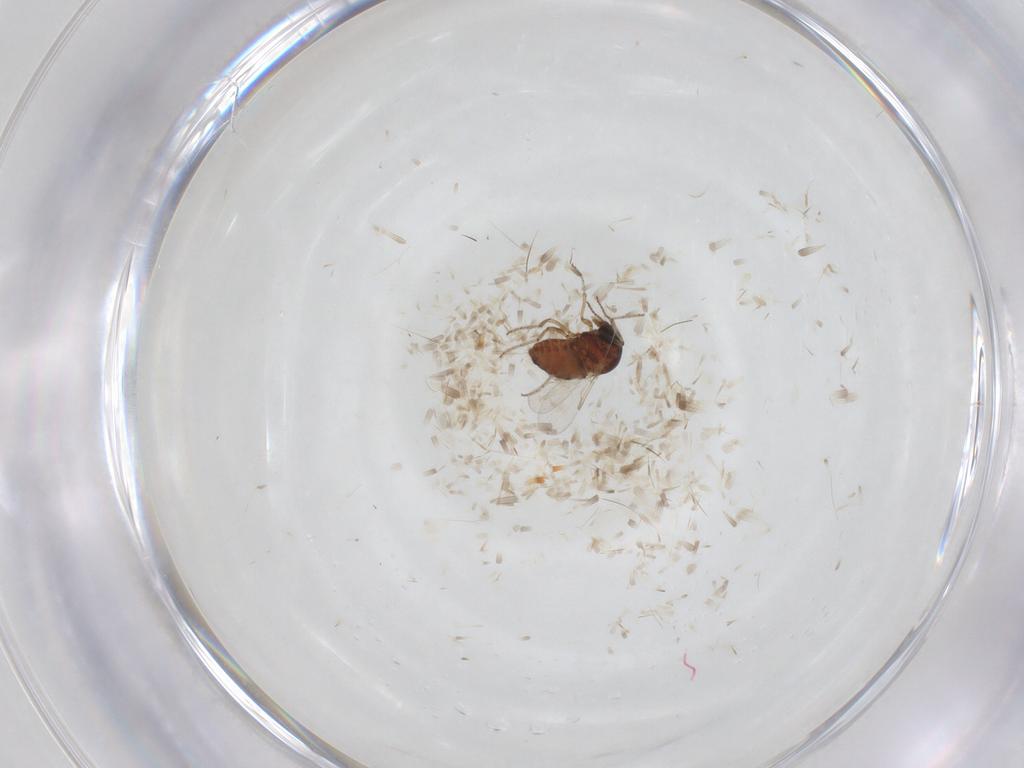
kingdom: Animalia
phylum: Arthropoda
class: Insecta
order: Diptera
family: Ceratopogonidae
